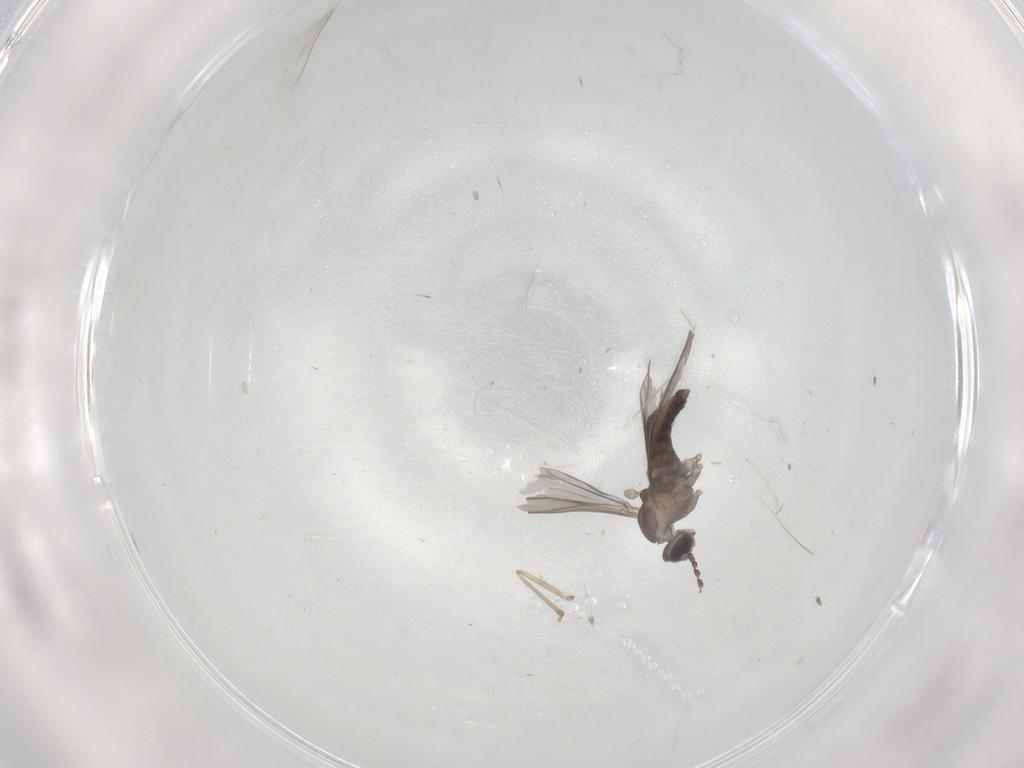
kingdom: Animalia
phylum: Arthropoda
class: Insecta
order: Diptera
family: Cecidomyiidae
